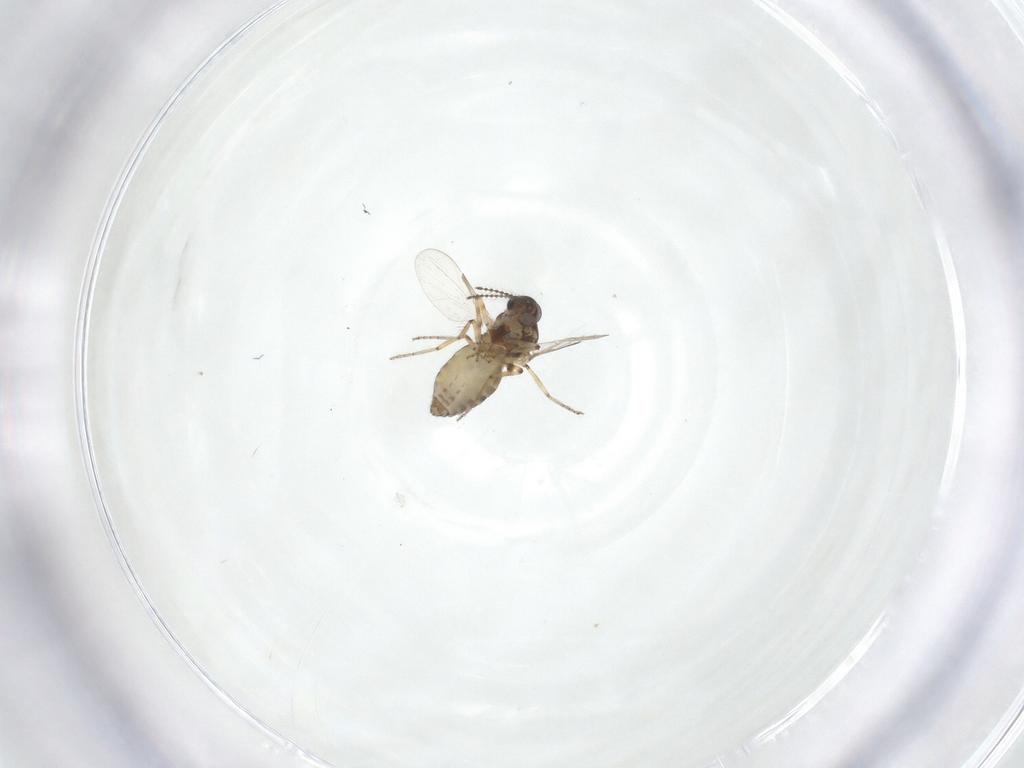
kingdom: Animalia
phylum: Arthropoda
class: Insecta
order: Diptera
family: Ceratopogonidae
